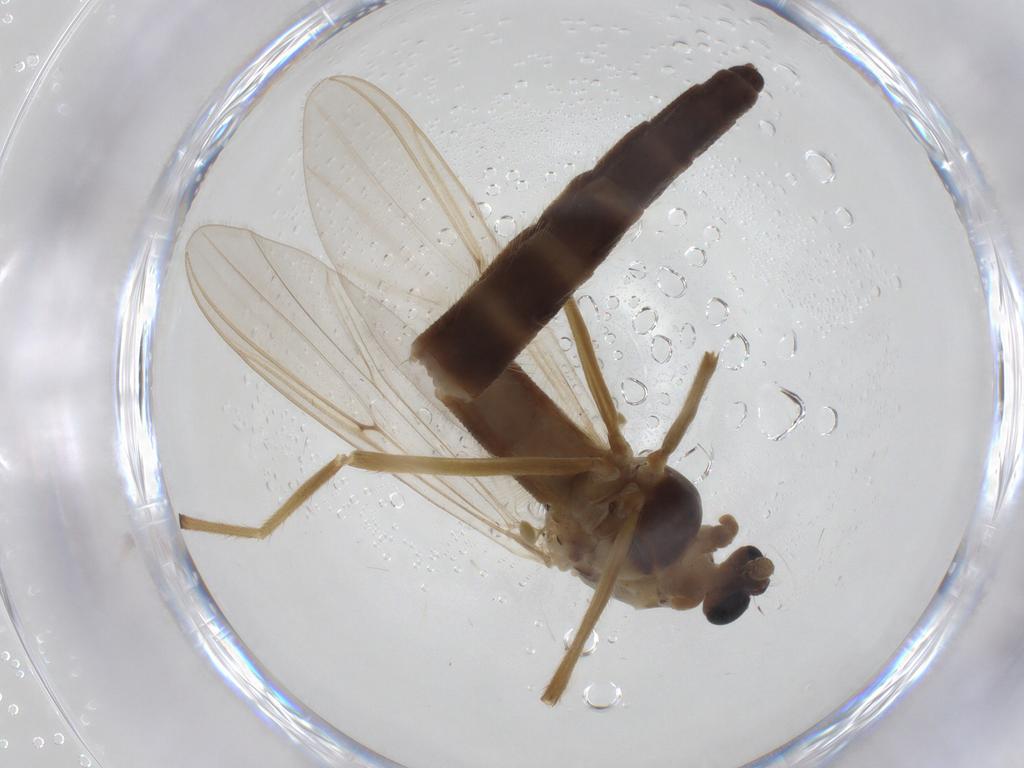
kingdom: Animalia
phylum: Arthropoda
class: Insecta
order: Diptera
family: Chironomidae
